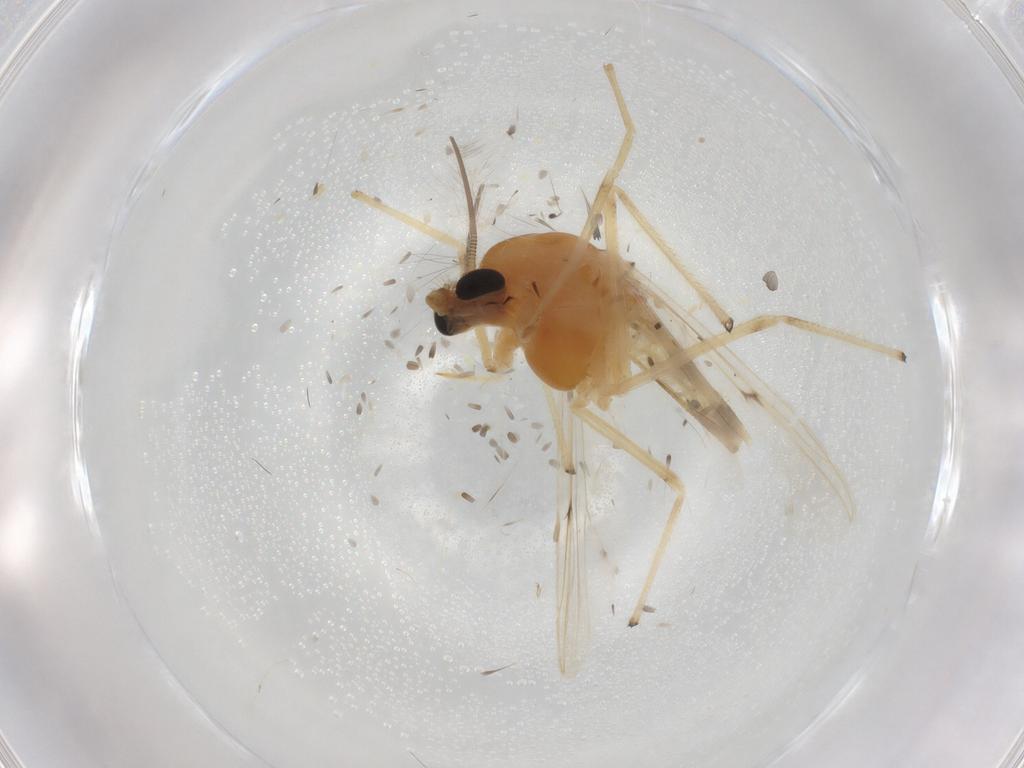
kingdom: Animalia
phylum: Arthropoda
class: Insecta
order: Diptera
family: Chironomidae
